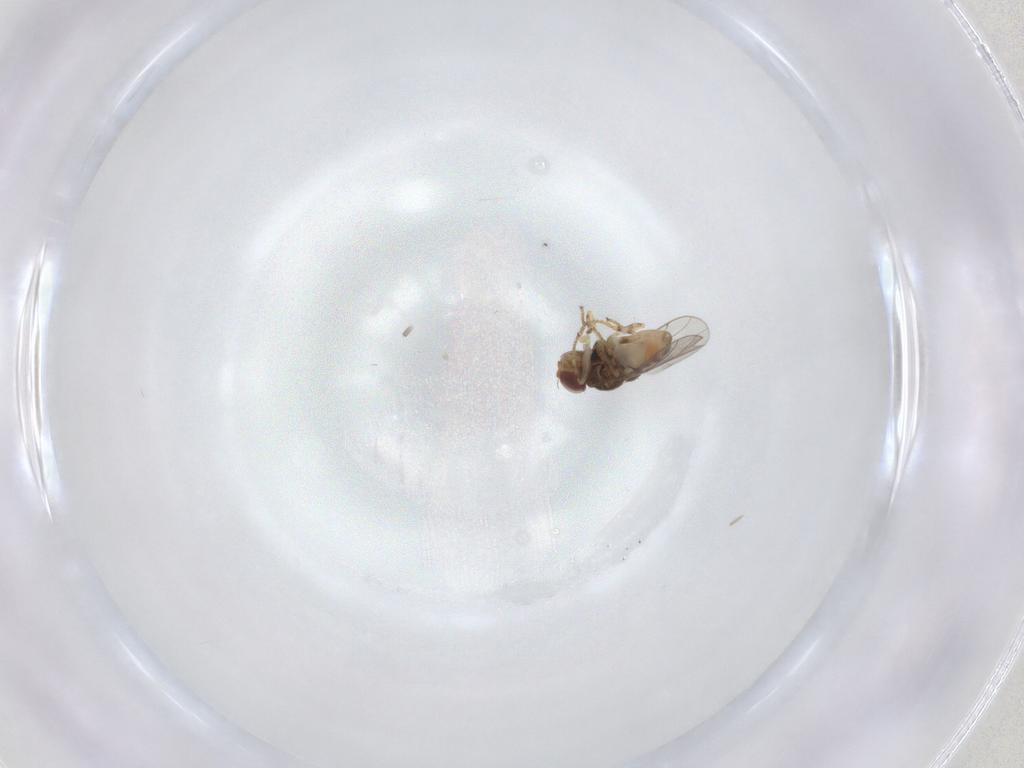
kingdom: Animalia
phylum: Arthropoda
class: Insecta
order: Diptera
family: Chloropidae
